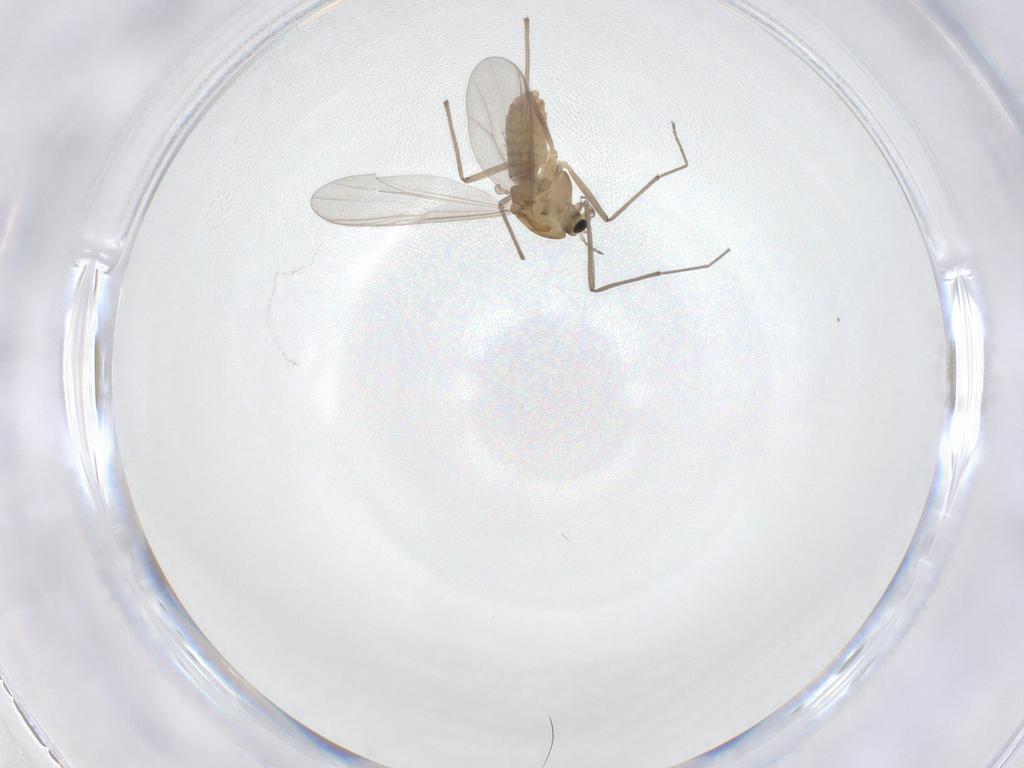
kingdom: Animalia
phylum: Arthropoda
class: Insecta
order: Diptera
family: Chironomidae
